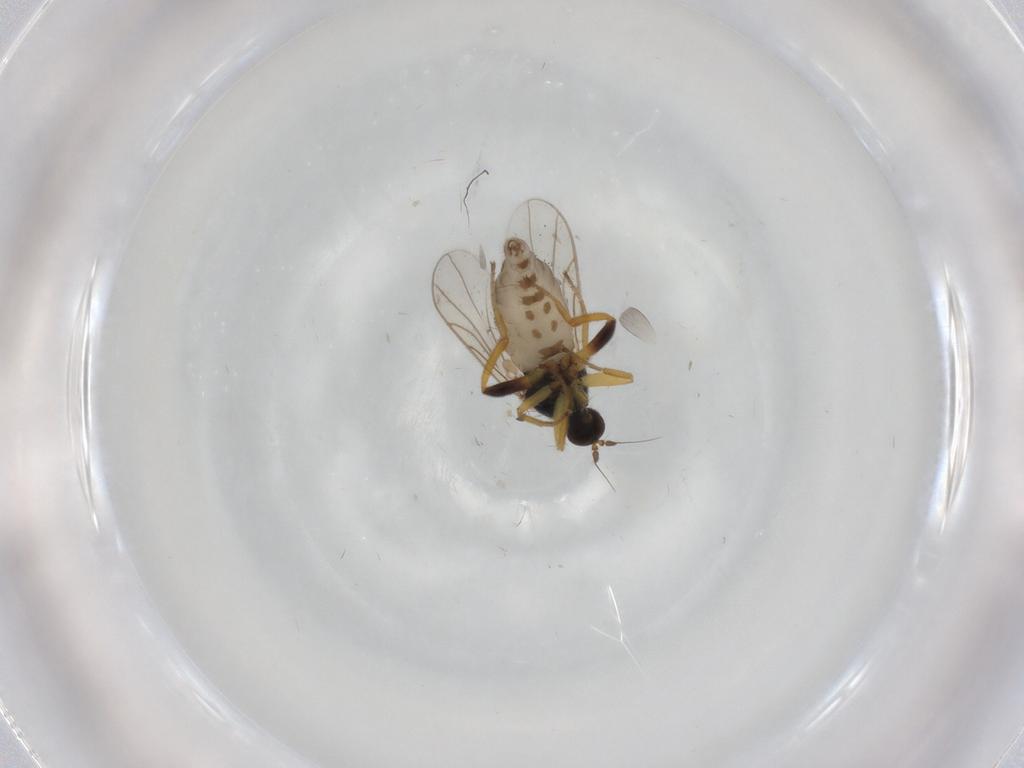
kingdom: Animalia
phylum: Arthropoda
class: Insecta
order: Diptera
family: Hybotidae
